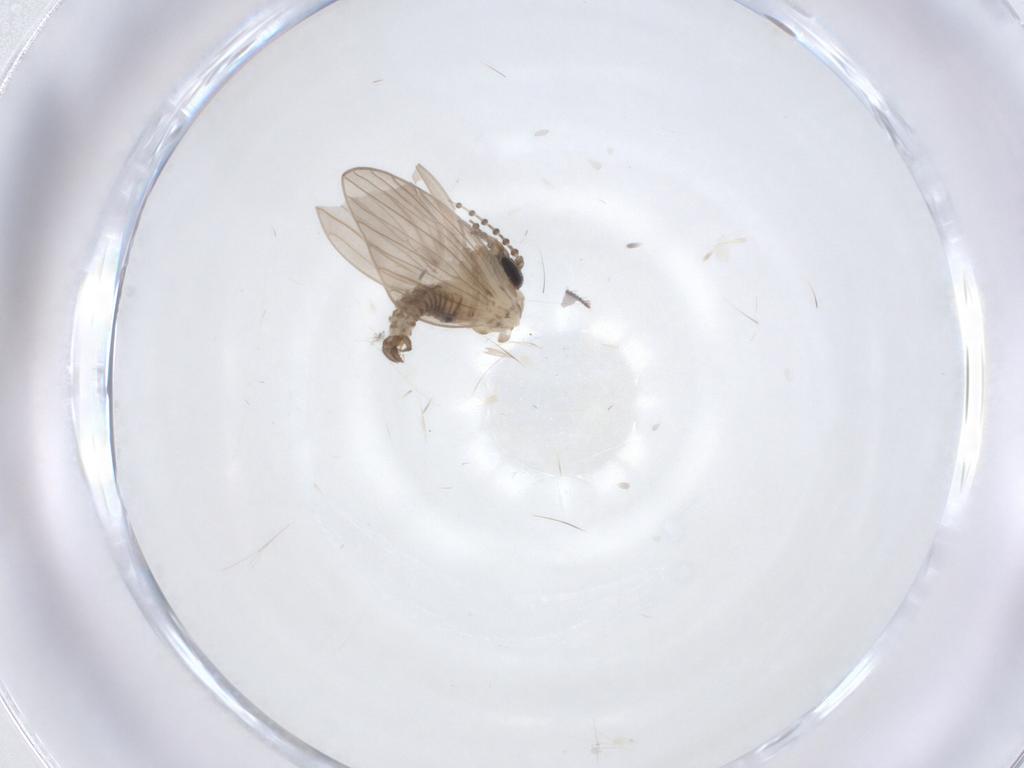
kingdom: Animalia
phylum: Arthropoda
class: Insecta
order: Diptera
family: Psychodidae
